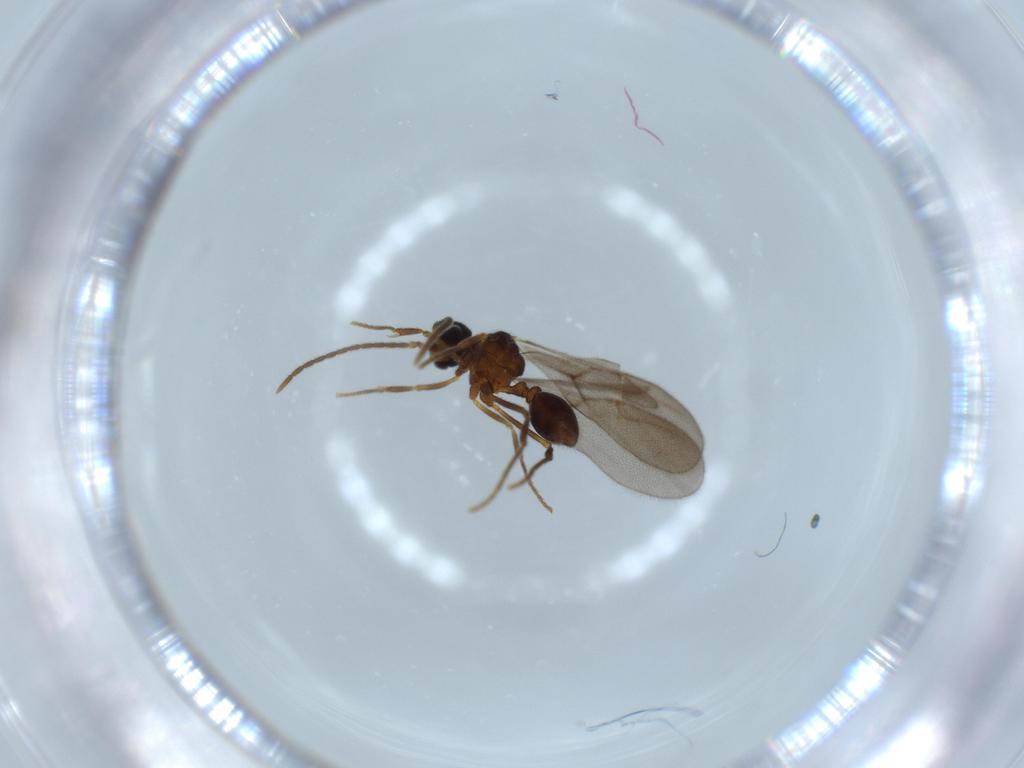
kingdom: Animalia
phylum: Arthropoda
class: Insecta
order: Hymenoptera
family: Formicidae
